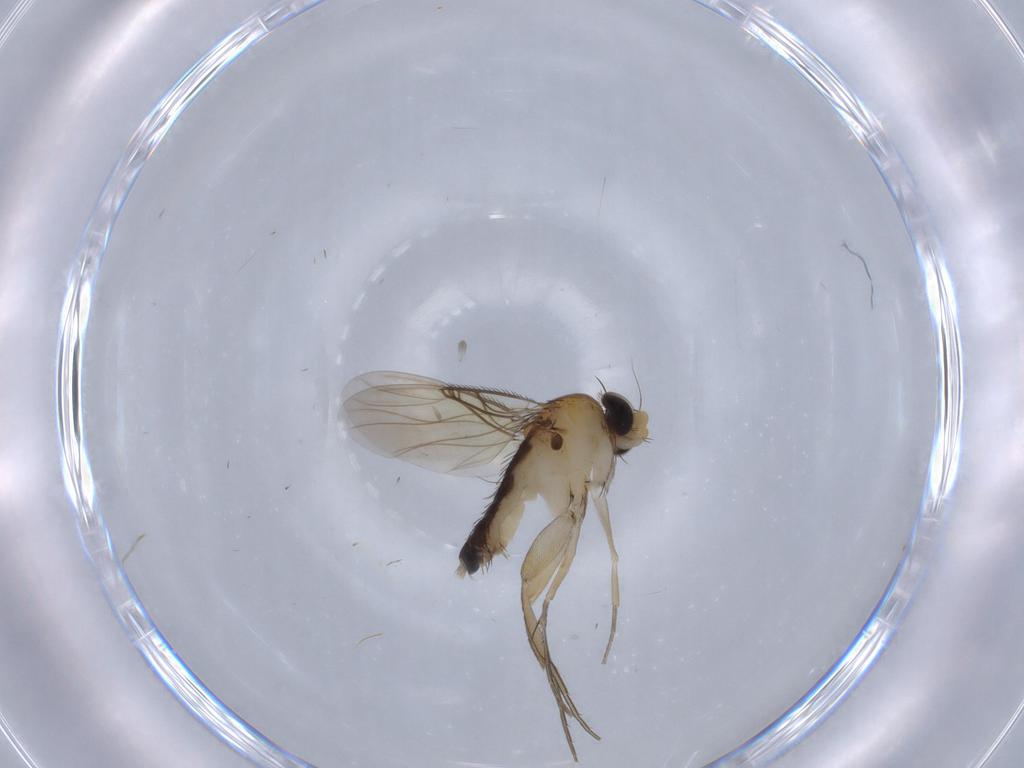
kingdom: Animalia
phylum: Arthropoda
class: Insecta
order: Diptera
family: Phoridae
